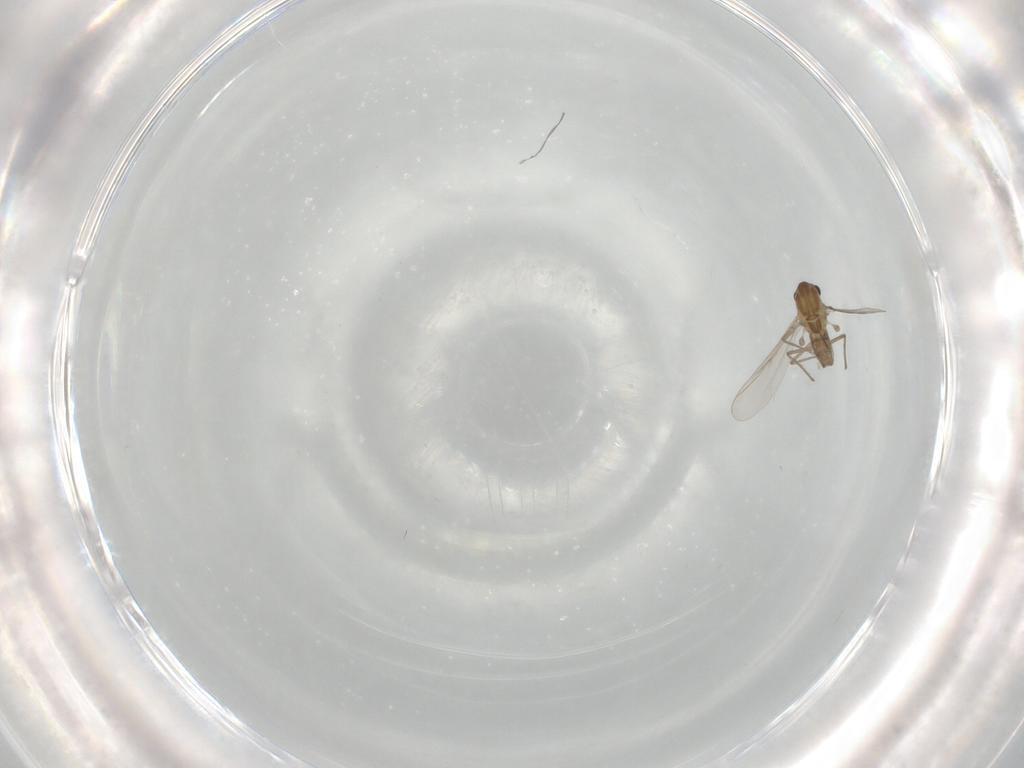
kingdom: Animalia
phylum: Arthropoda
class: Insecta
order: Diptera
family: Chironomidae
